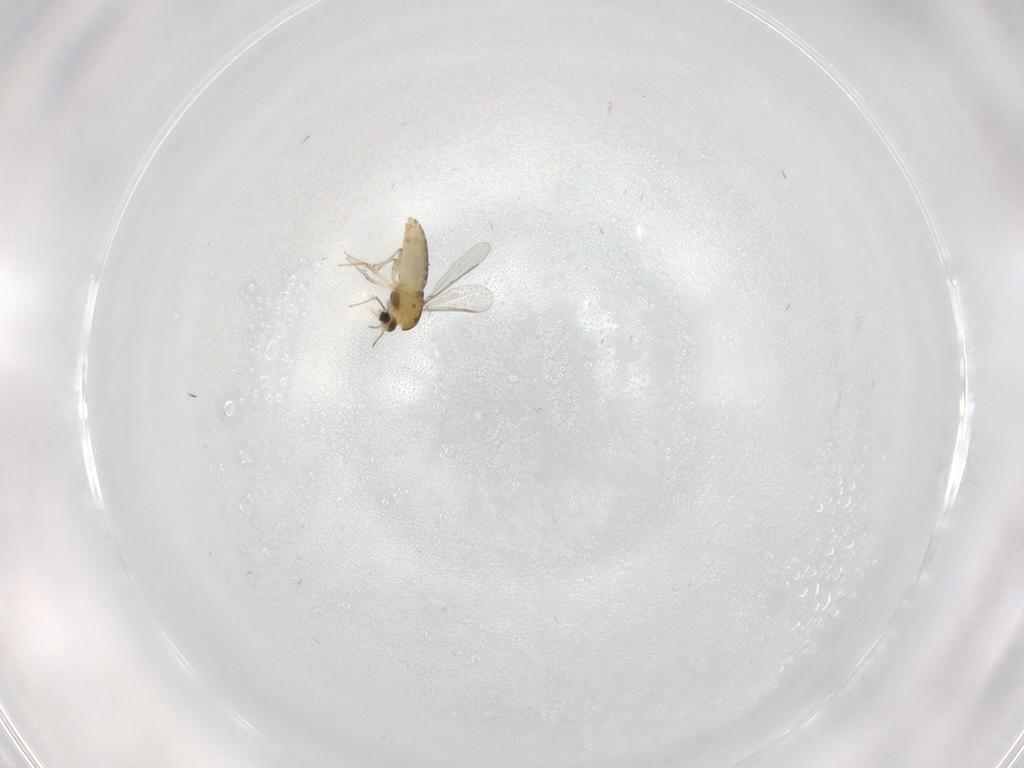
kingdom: Animalia
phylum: Arthropoda
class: Insecta
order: Diptera
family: Chironomidae
